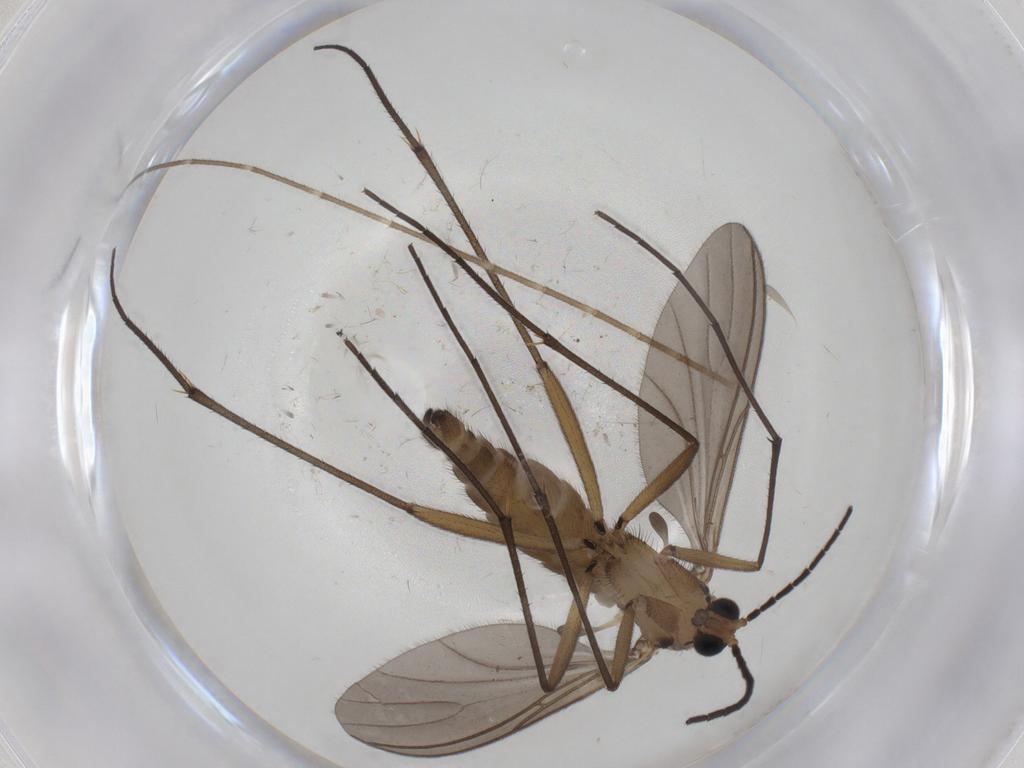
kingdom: Animalia
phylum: Arthropoda
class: Insecta
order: Diptera
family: Sciaridae
